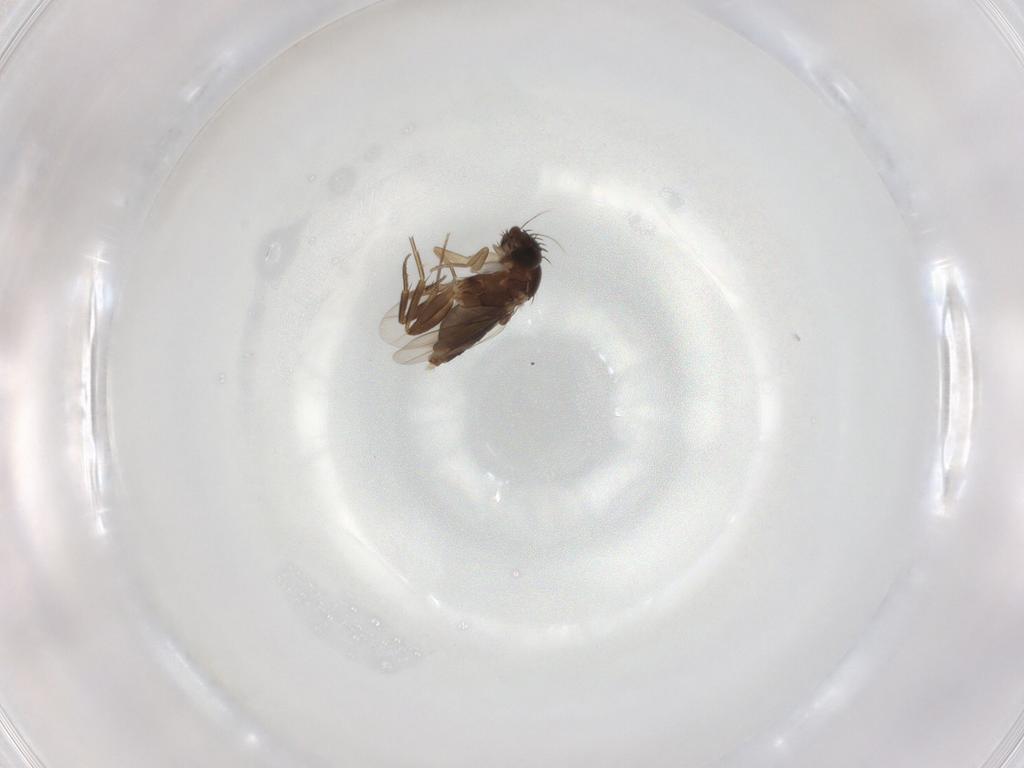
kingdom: Animalia
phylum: Arthropoda
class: Insecta
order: Diptera
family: Phoridae
